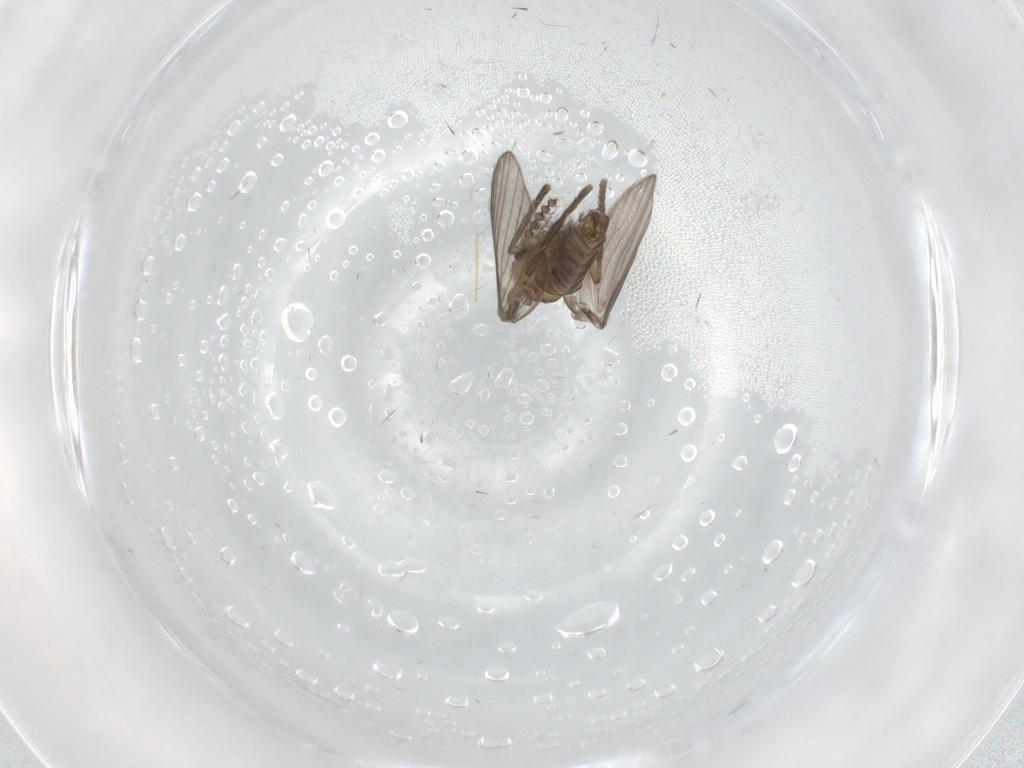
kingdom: Animalia
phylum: Arthropoda
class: Insecta
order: Diptera
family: Psychodidae
